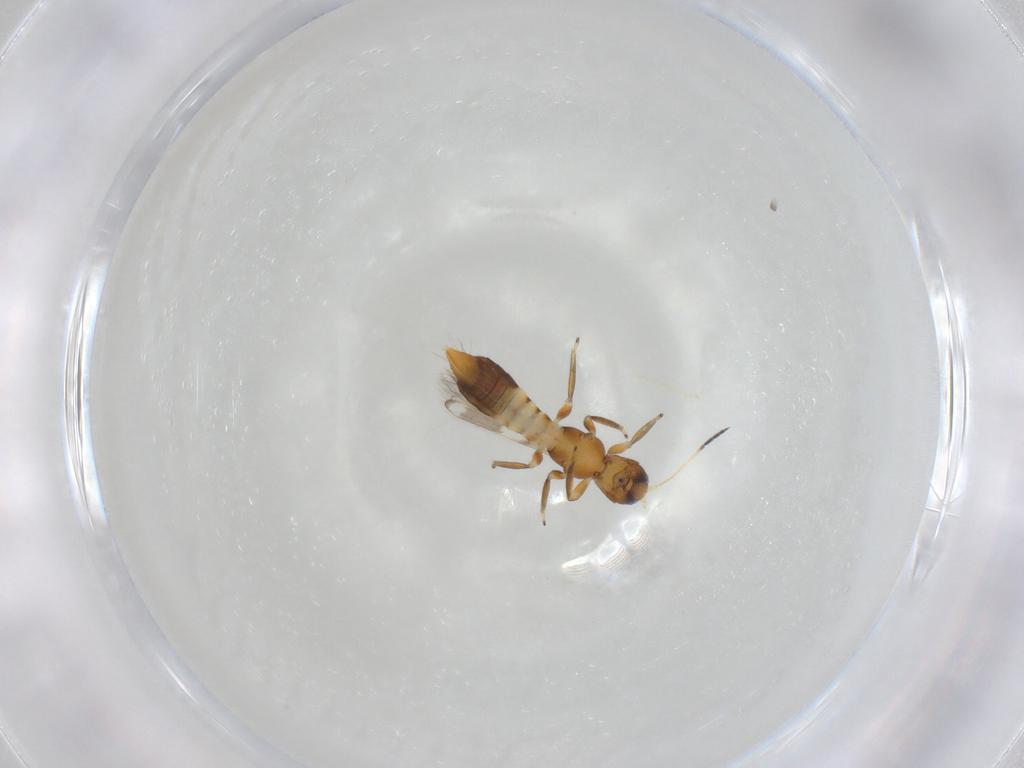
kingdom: Animalia
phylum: Arthropoda
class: Insecta
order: Thysanoptera
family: Aeolothripidae
